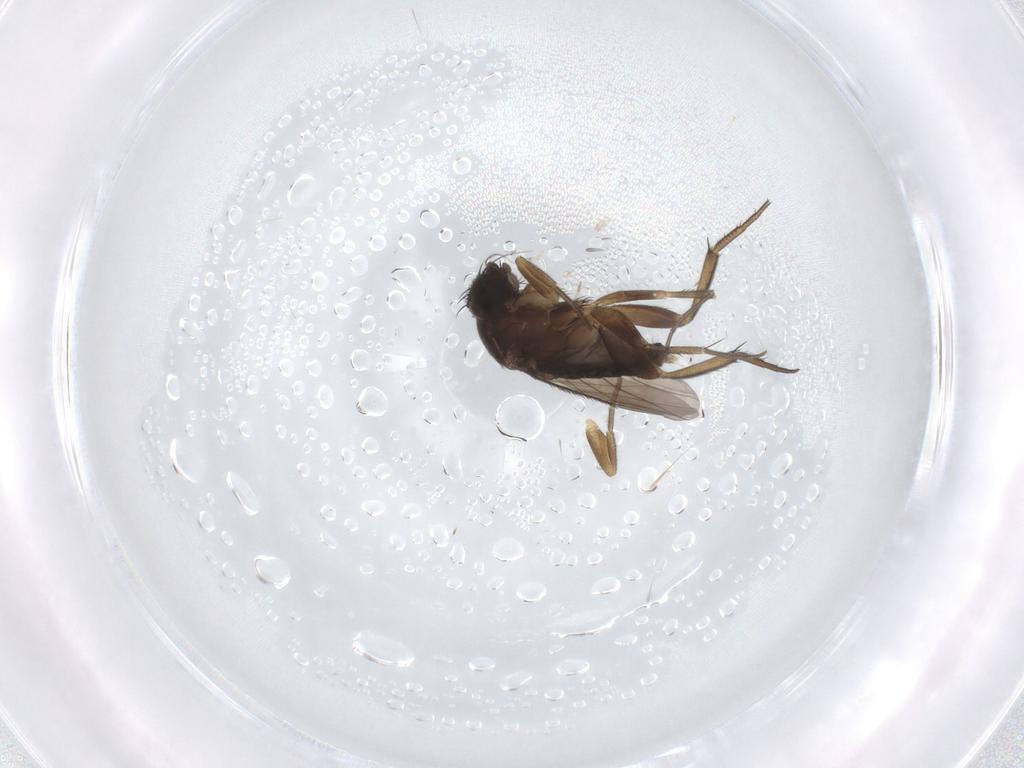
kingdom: Animalia
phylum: Arthropoda
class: Insecta
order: Diptera
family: Phoridae
